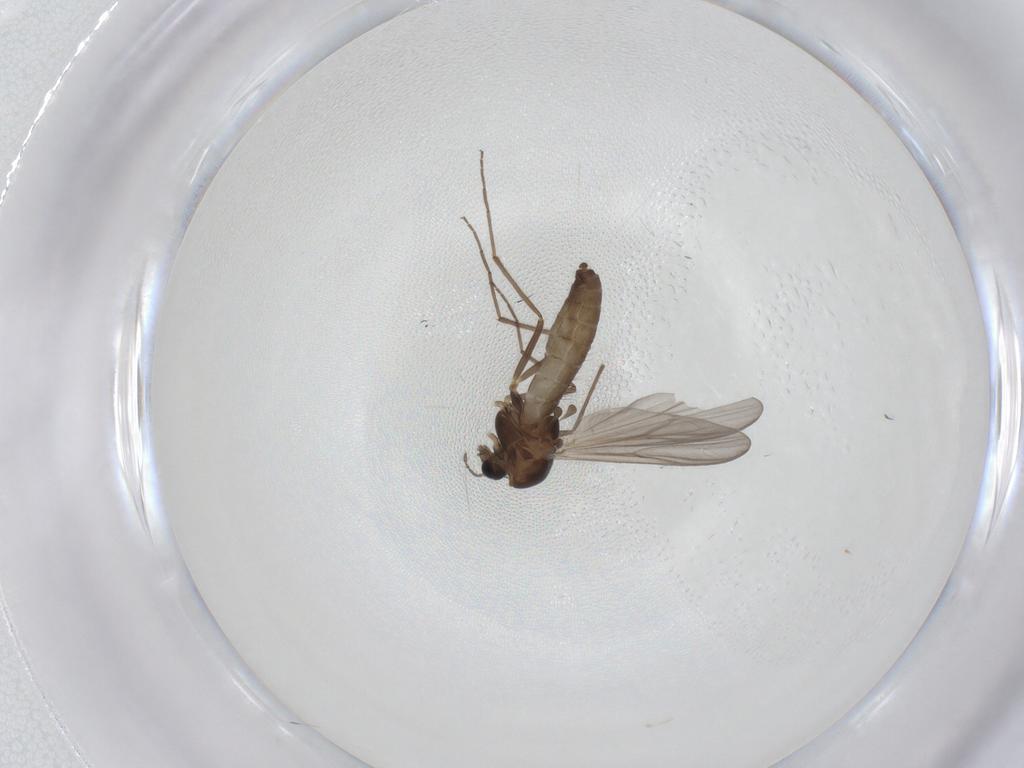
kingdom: Animalia
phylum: Arthropoda
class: Insecta
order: Diptera
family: Chironomidae
